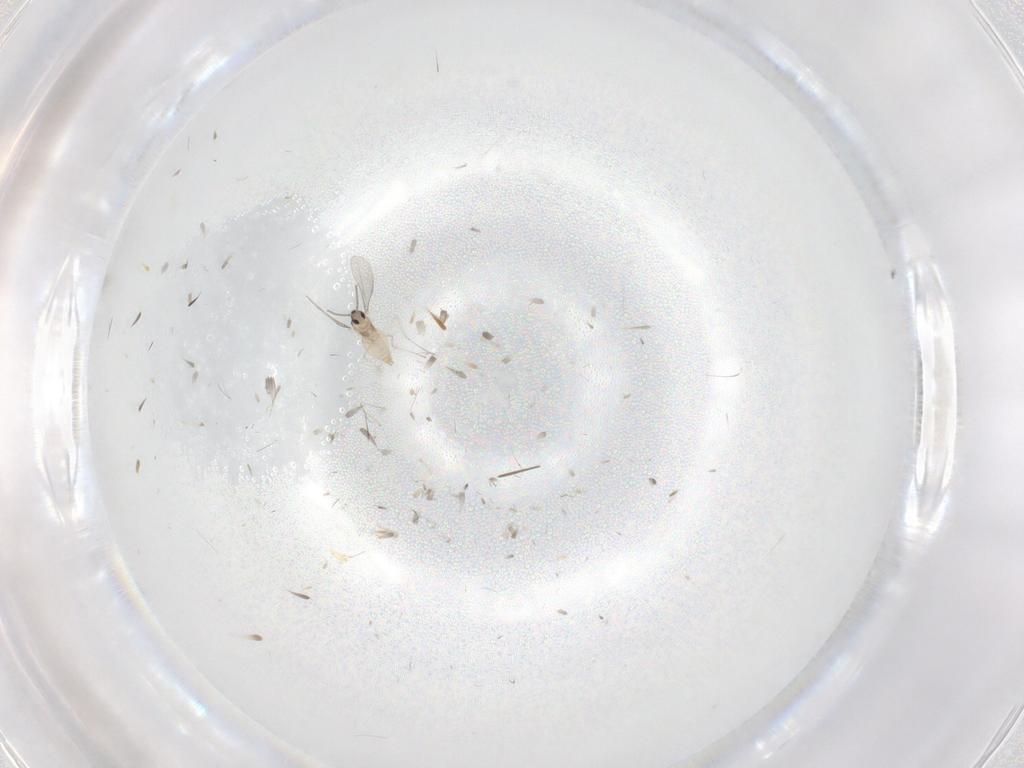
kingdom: Animalia
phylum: Arthropoda
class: Insecta
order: Diptera
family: Cecidomyiidae
